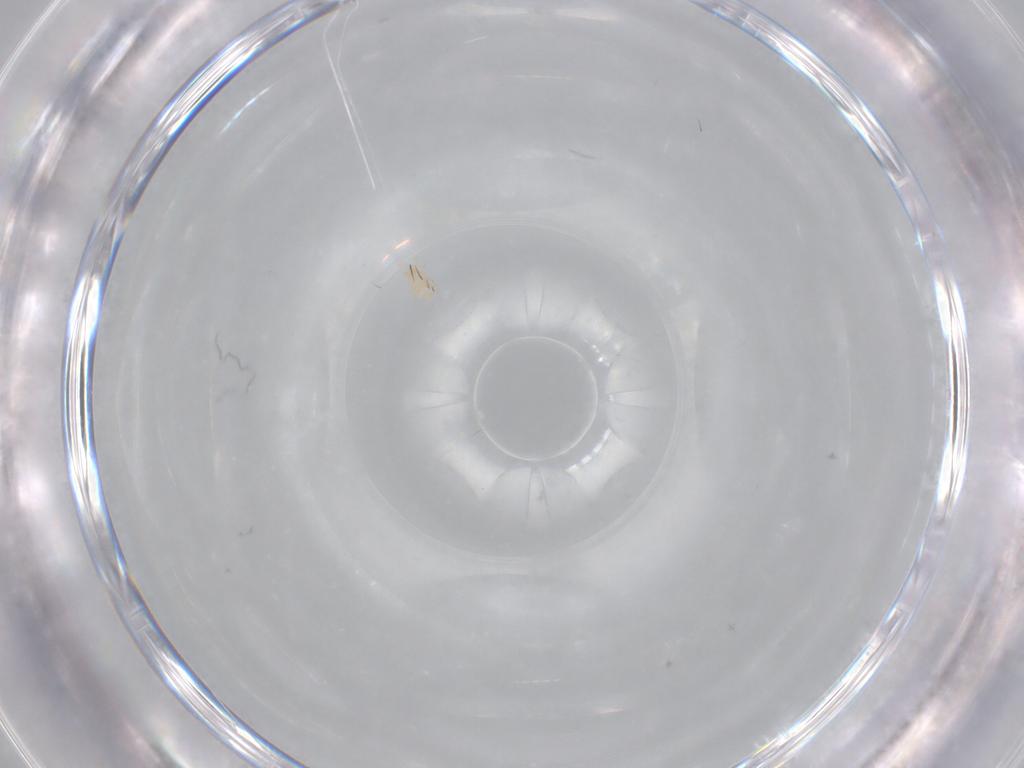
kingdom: Animalia
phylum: Arthropoda
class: Arachnida
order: Mesostigmata
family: Digamasellidae
